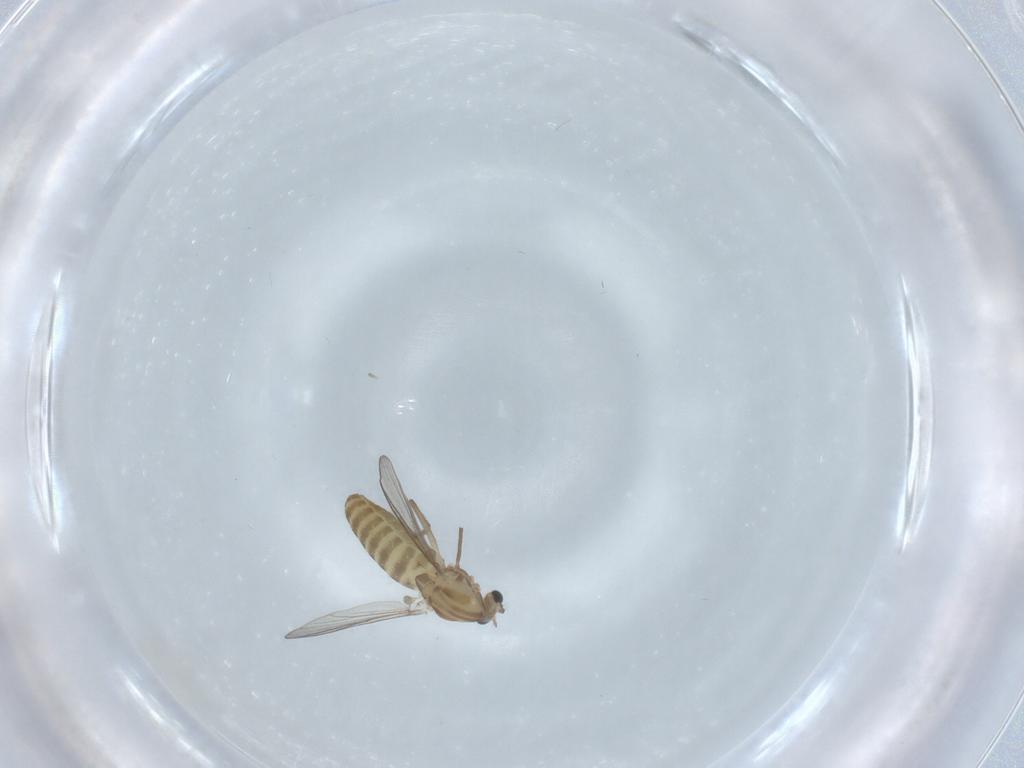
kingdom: Animalia
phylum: Arthropoda
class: Insecta
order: Diptera
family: Chironomidae
